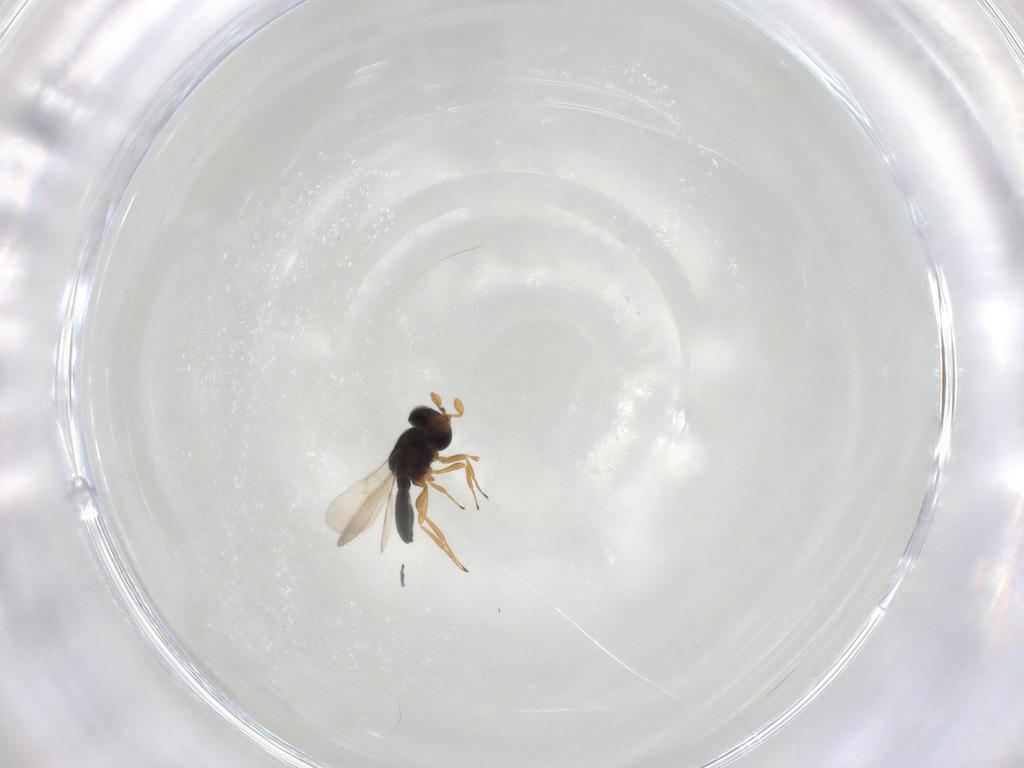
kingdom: Animalia
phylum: Arthropoda
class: Insecta
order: Hymenoptera
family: Scelionidae
